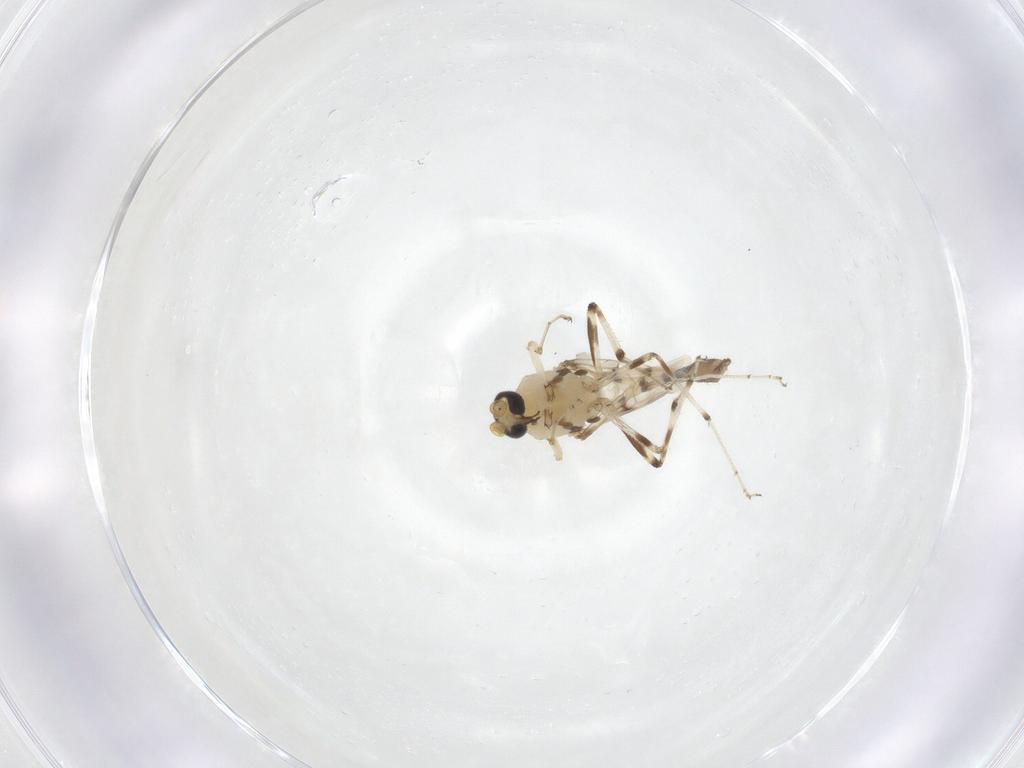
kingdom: Animalia
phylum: Arthropoda
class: Insecta
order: Diptera
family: Ceratopogonidae
